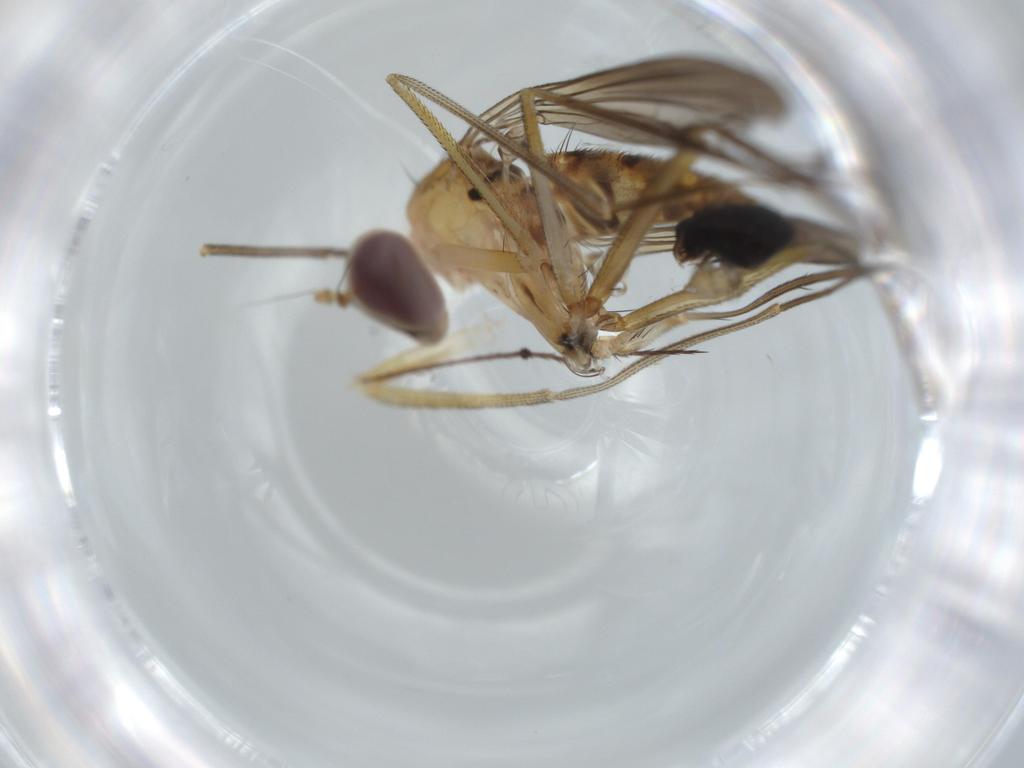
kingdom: Animalia
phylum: Arthropoda
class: Insecta
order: Diptera
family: Dolichopodidae
